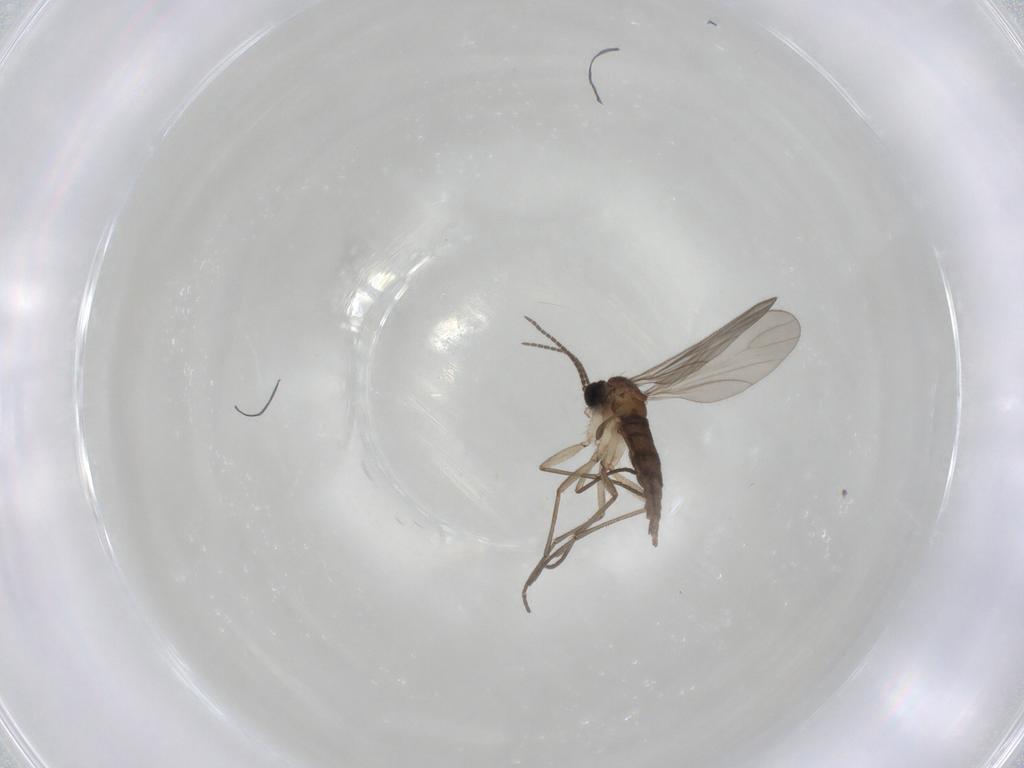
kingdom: Animalia
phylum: Arthropoda
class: Insecta
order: Diptera
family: Sciaridae
